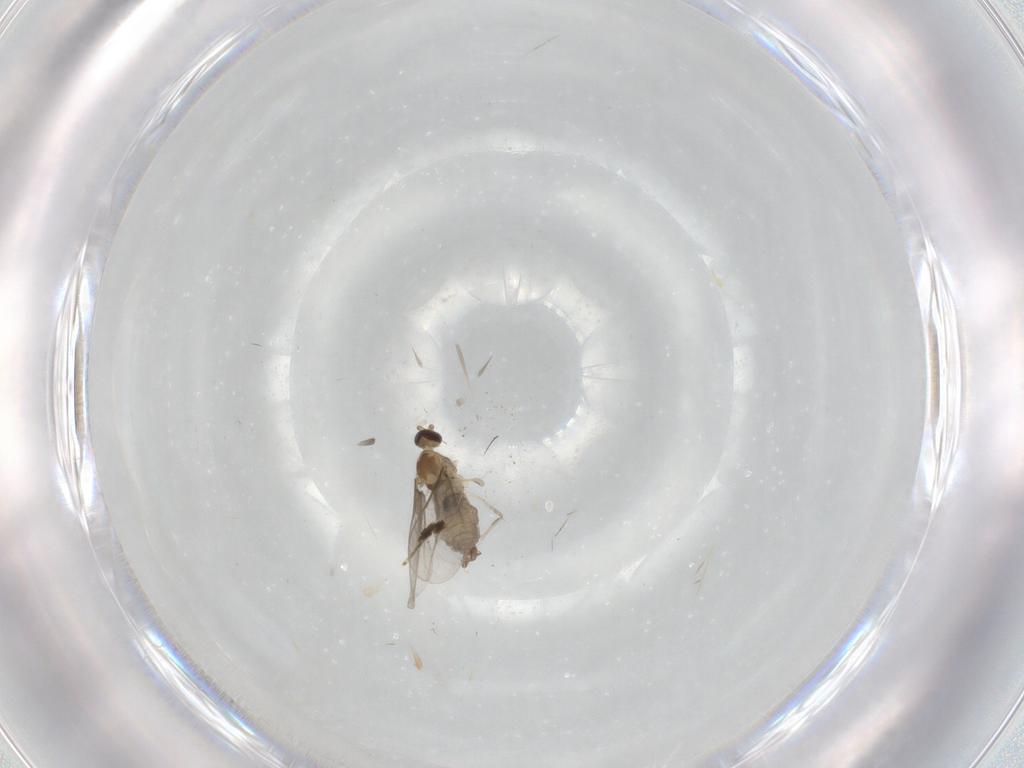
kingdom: Animalia
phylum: Arthropoda
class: Insecta
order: Diptera
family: Cecidomyiidae
